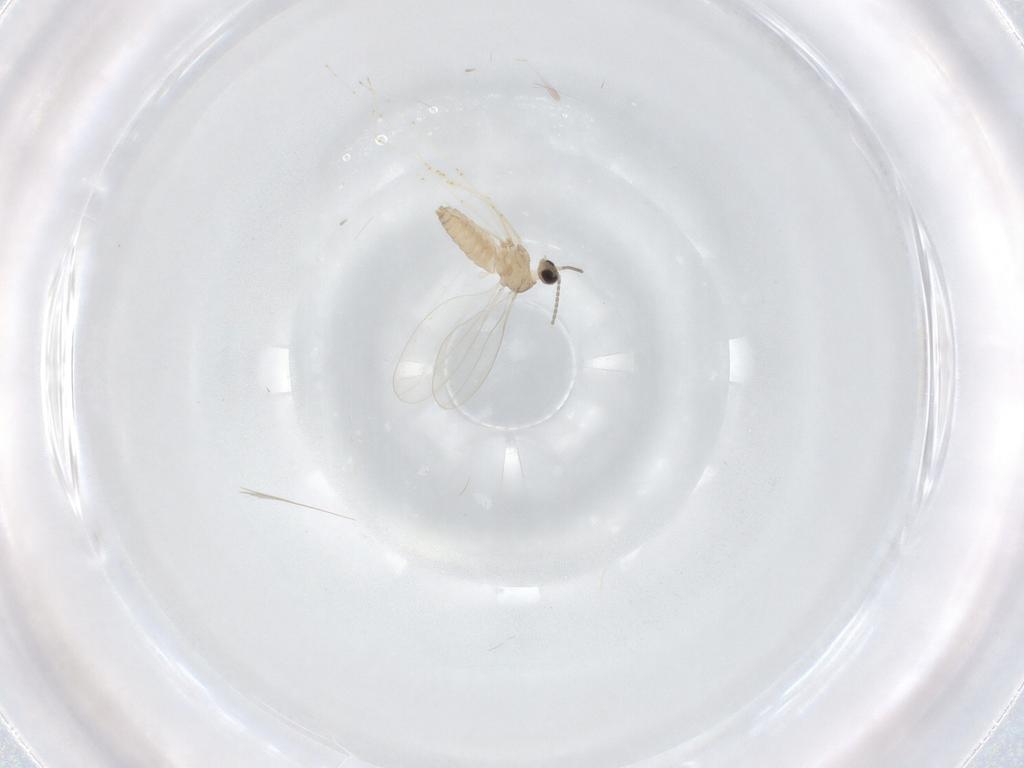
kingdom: Animalia
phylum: Arthropoda
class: Insecta
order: Diptera
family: Cecidomyiidae
